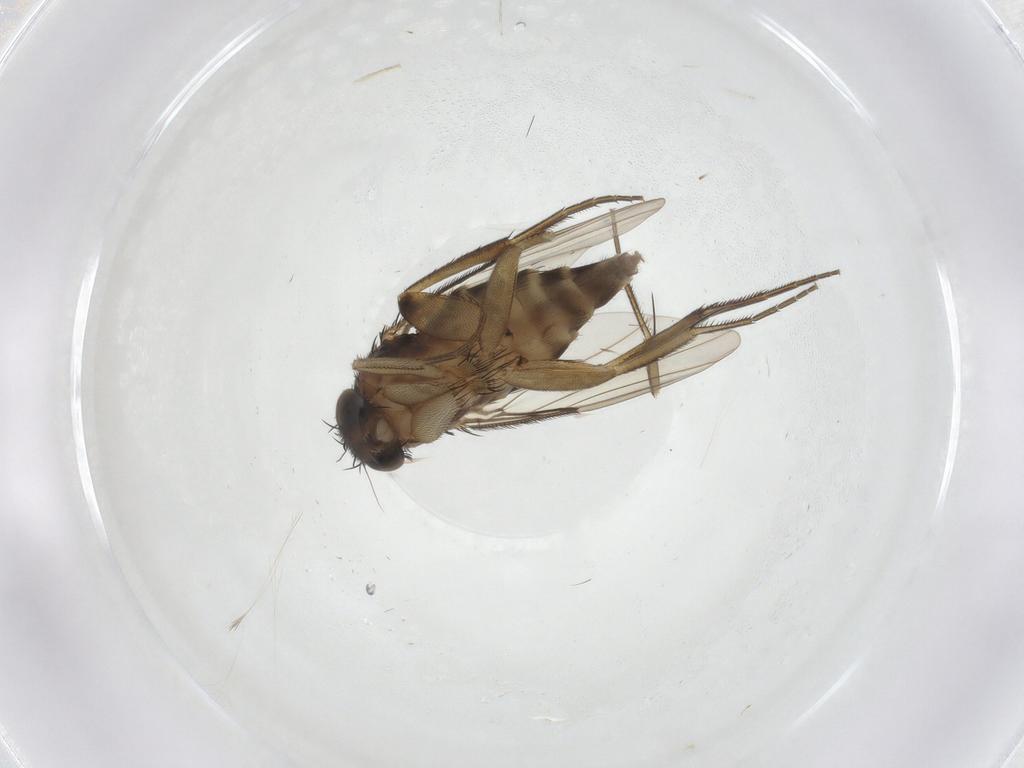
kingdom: Animalia
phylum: Arthropoda
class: Insecta
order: Diptera
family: Phoridae
